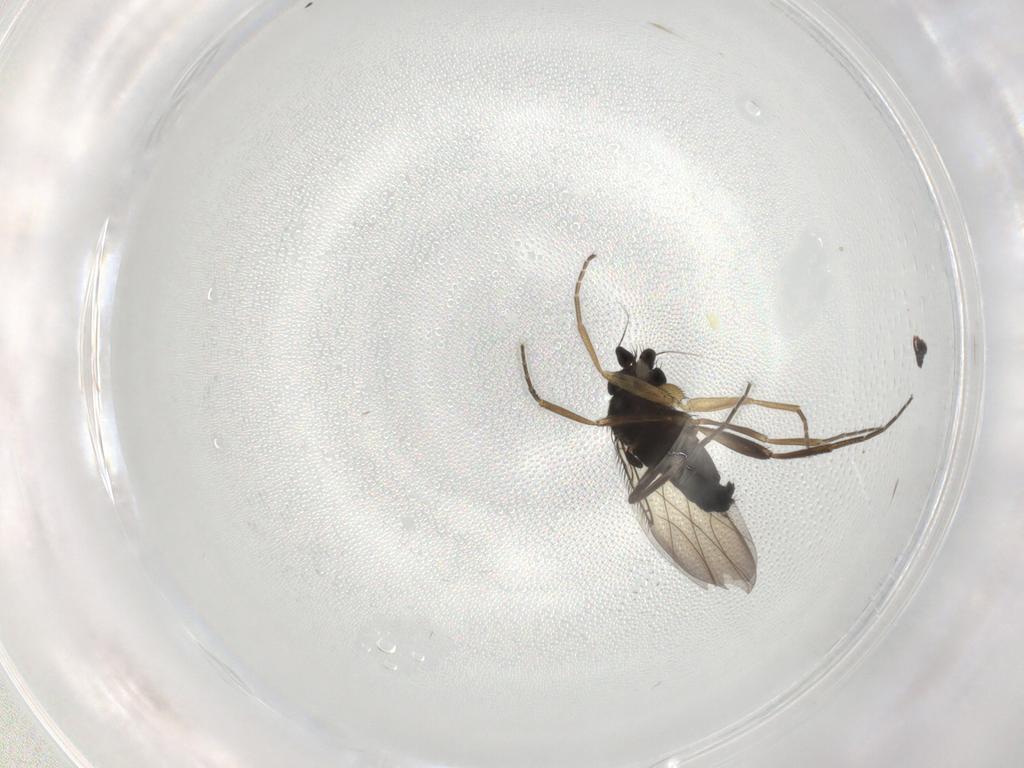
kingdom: Animalia
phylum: Arthropoda
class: Insecta
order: Diptera
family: Phoridae
